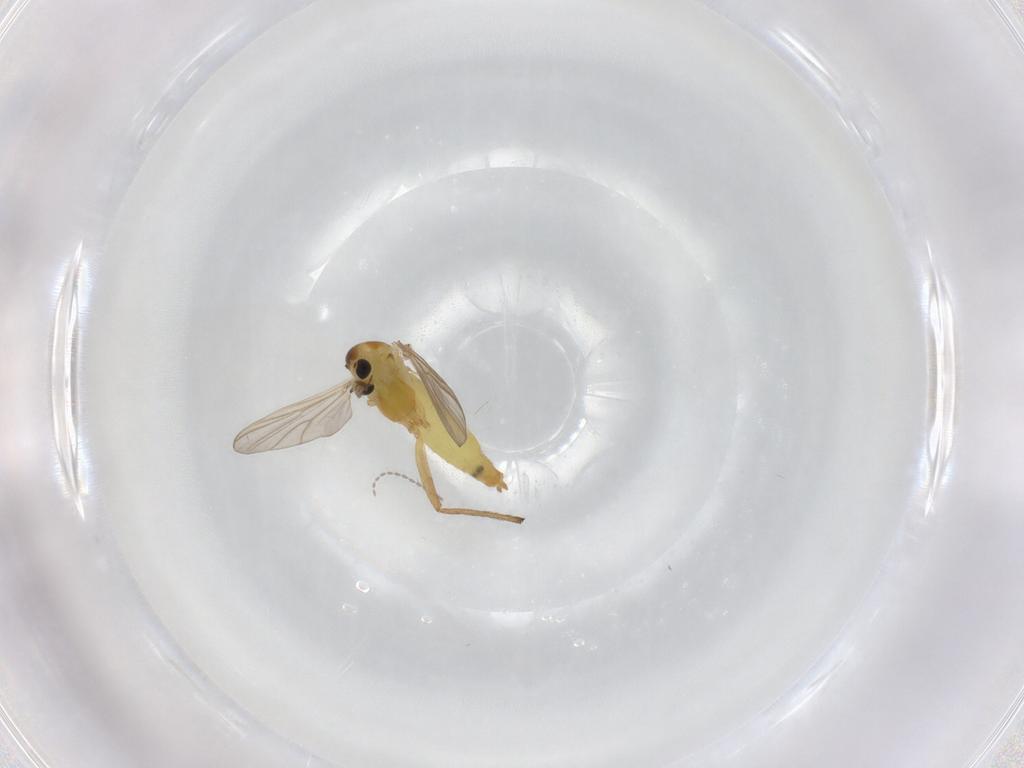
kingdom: Animalia
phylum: Arthropoda
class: Insecta
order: Diptera
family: Chironomidae
